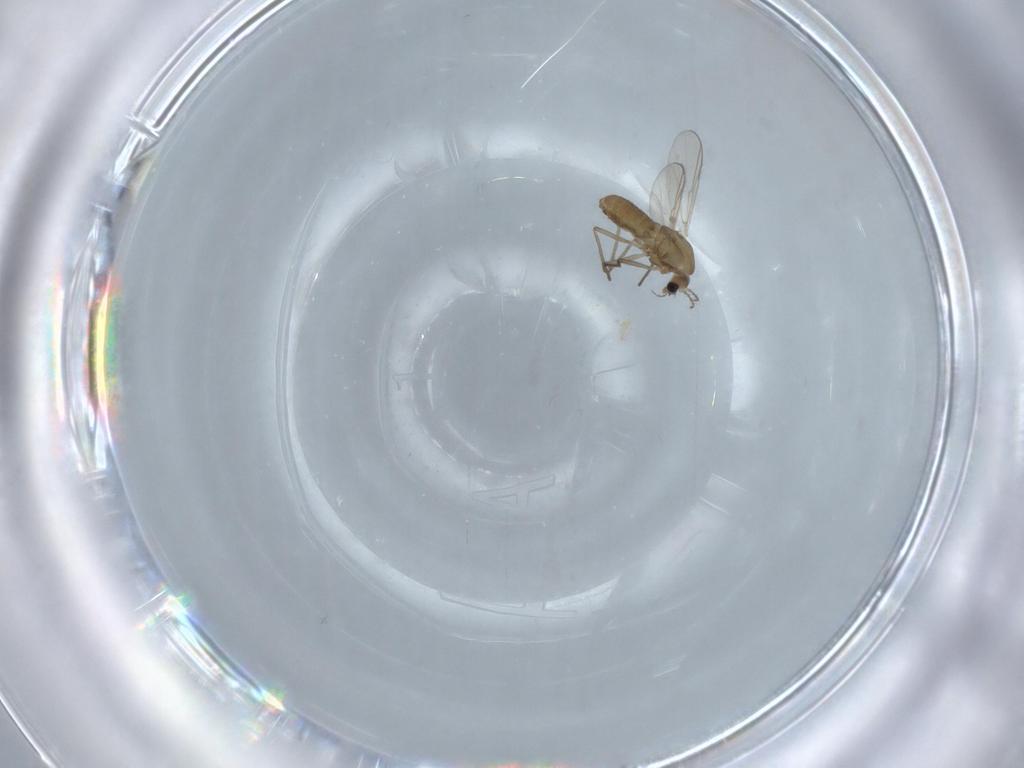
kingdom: Animalia
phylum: Arthropoda
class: Insecta
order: Diptera
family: Chironomidae
